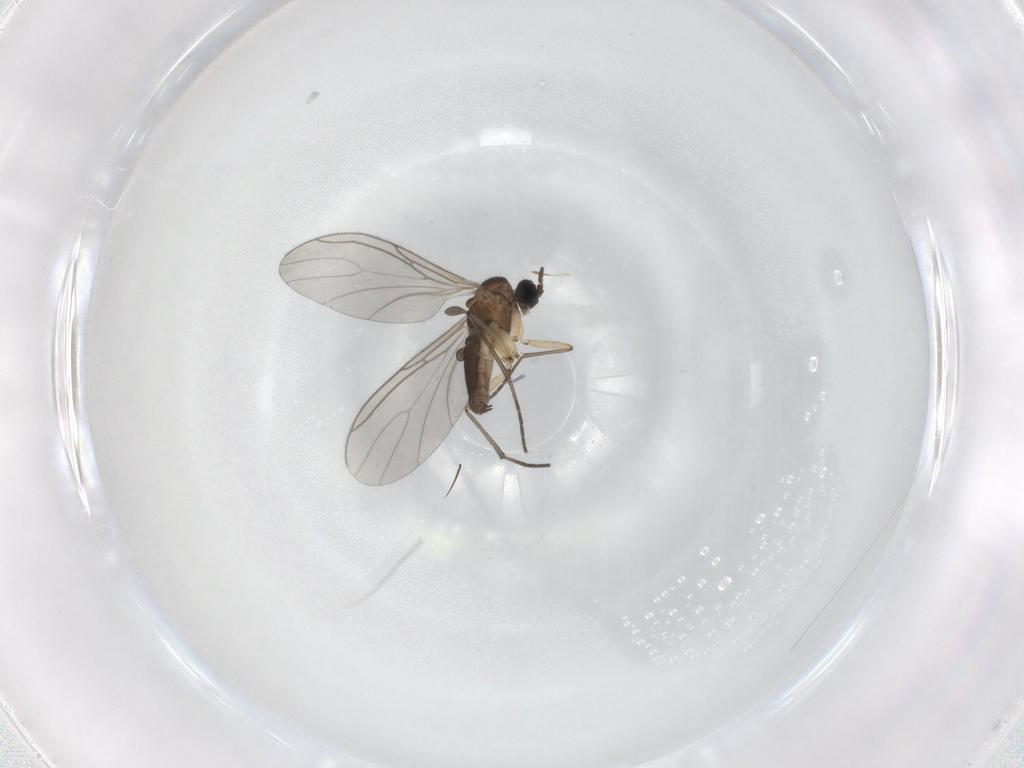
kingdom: Animalia
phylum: Arthropoda
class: Insecta
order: Diptera
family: Sciaridae
